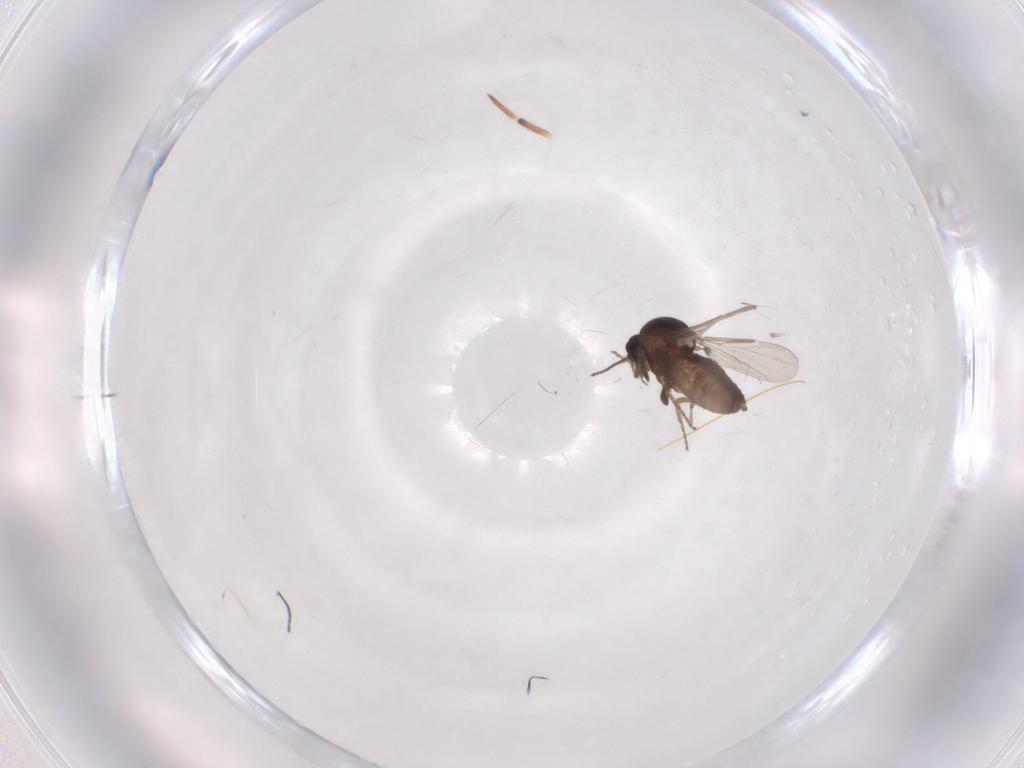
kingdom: Animalia
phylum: Arthropoda
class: Insecta
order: Diptera
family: Ceratopogonidae
